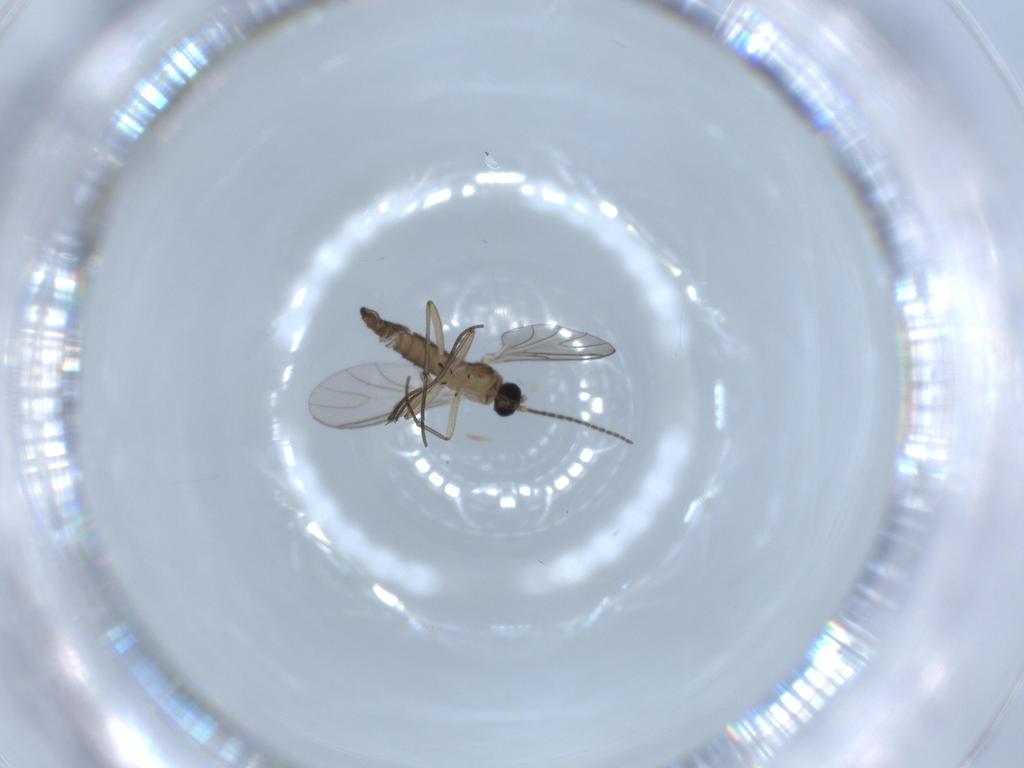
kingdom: Animalia
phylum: Arthropoda
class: Insecta
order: Diptera
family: Sciaridae
